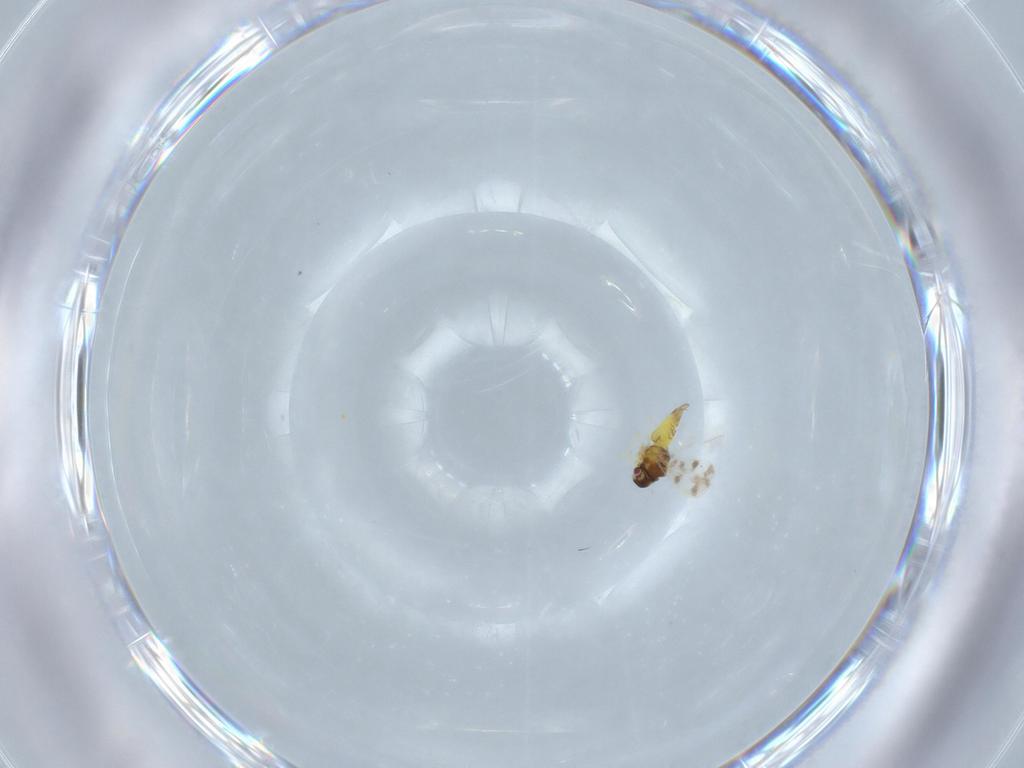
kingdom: Animalia
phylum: Arthropoda
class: Insecta
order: Hemiptera
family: Aleyrodidae
